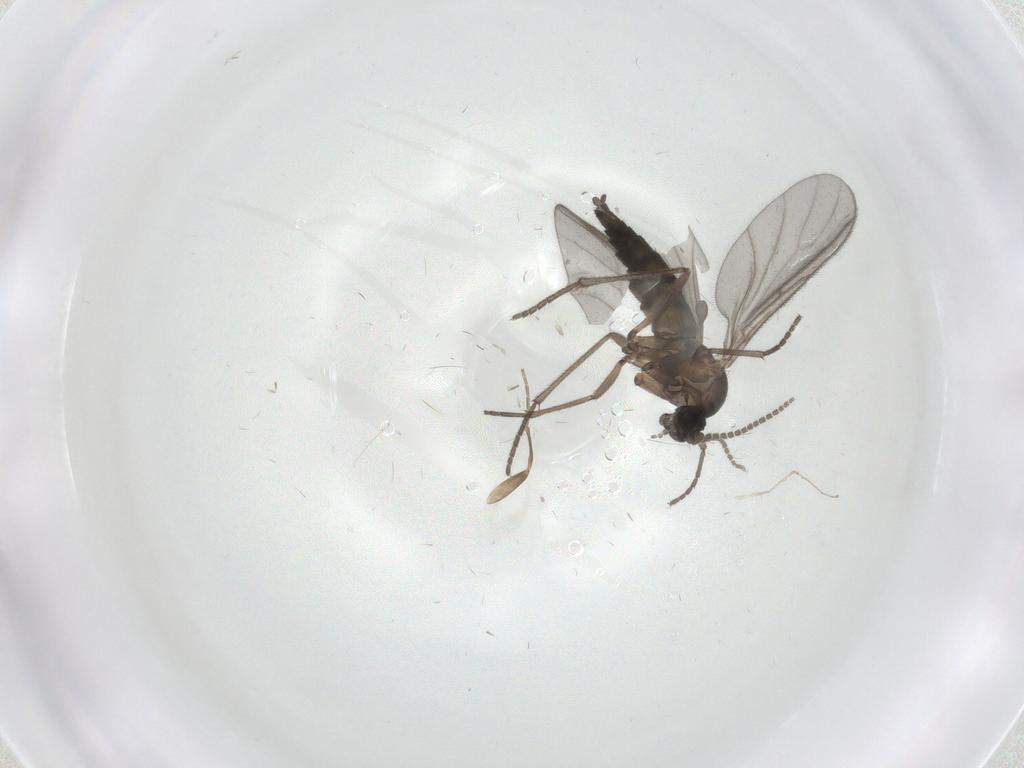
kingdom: Animalia
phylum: Arthropoda
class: Insecta
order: Diptera
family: Sciaridae
